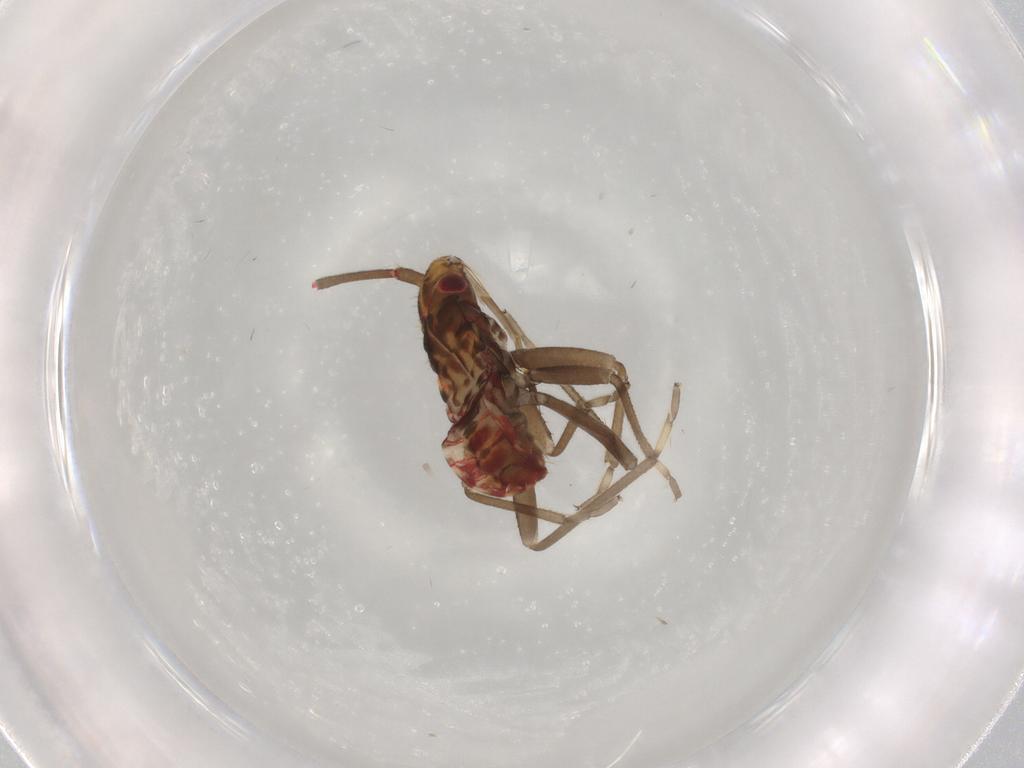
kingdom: Animalia
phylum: Arthropoda
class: Insecta
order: Hemiptera
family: Rhyparochromidae
